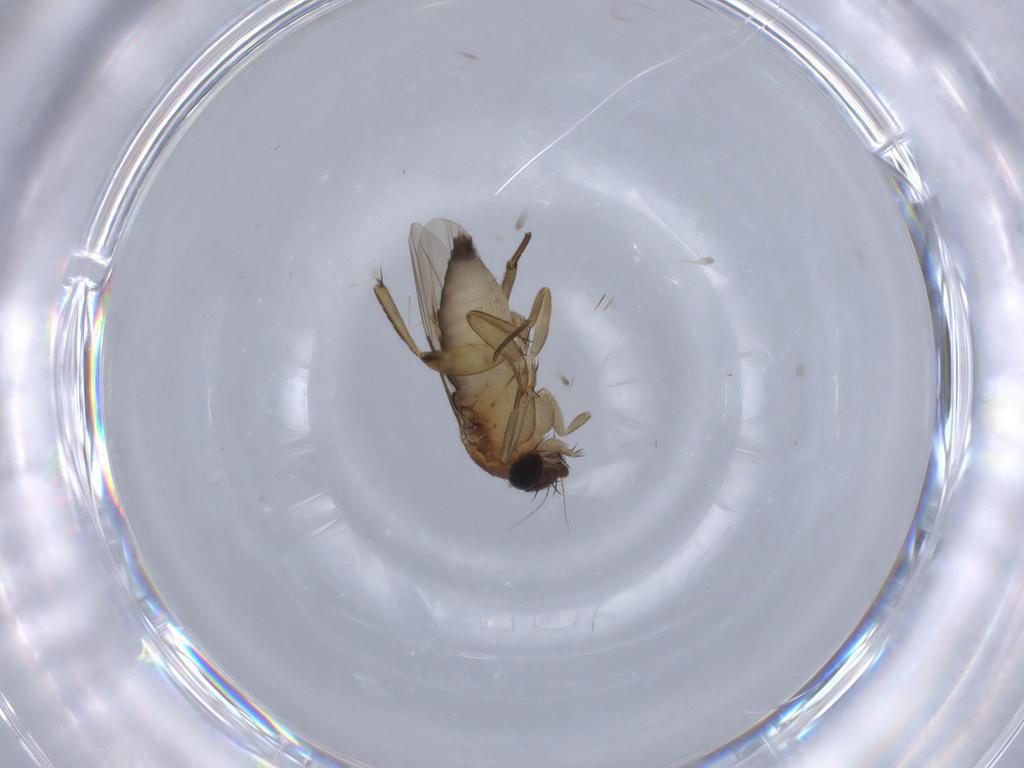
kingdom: Animalia
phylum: Arthropoda
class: Insecta
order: Diptera
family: Phoridae
